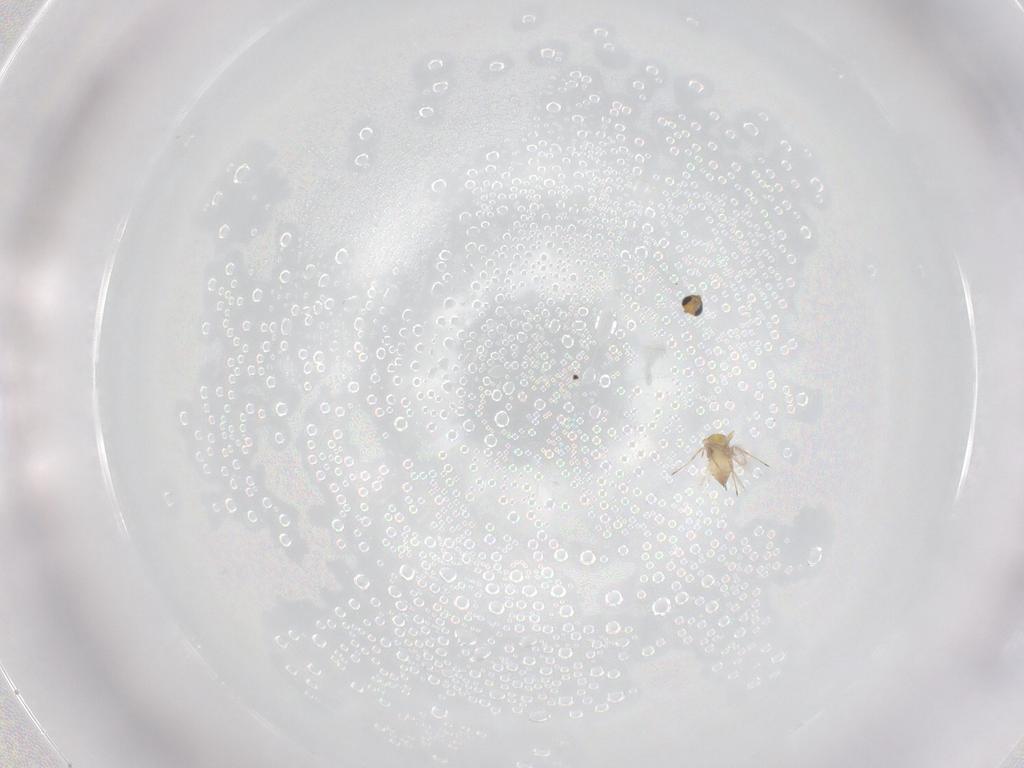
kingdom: Animalia
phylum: Arthropoda
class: Insecta
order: Hymenoptera
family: Trichogrammatidae
